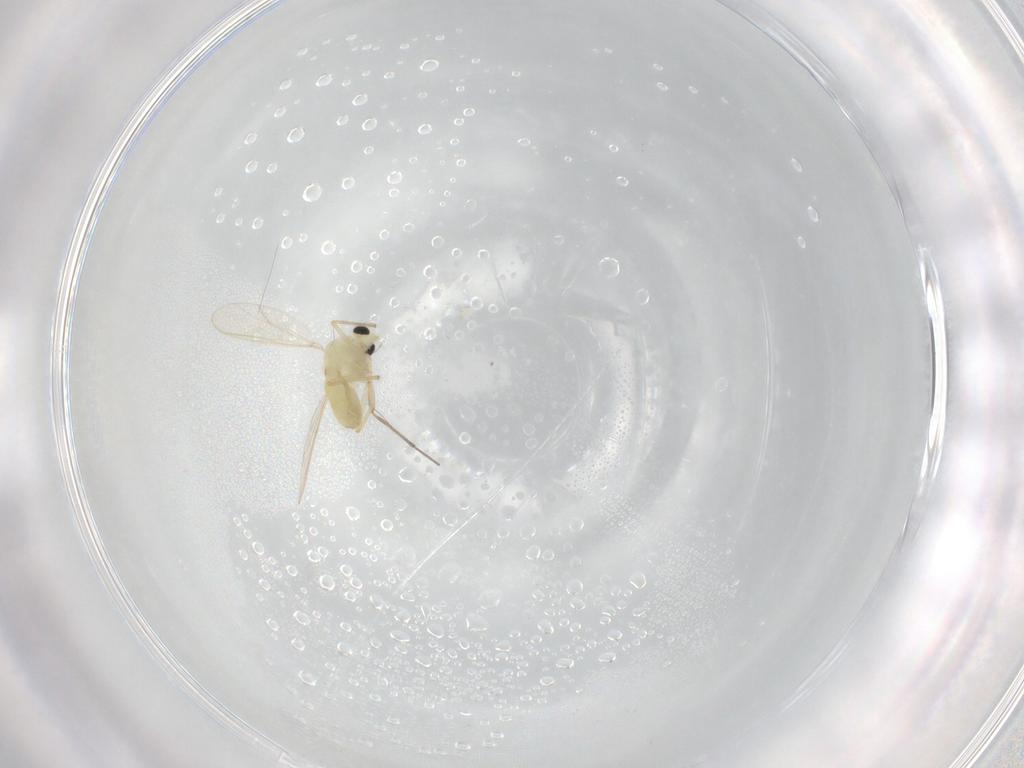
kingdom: Animalia
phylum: Arthropoda
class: Insecta
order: Diptera
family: Chironomidae
